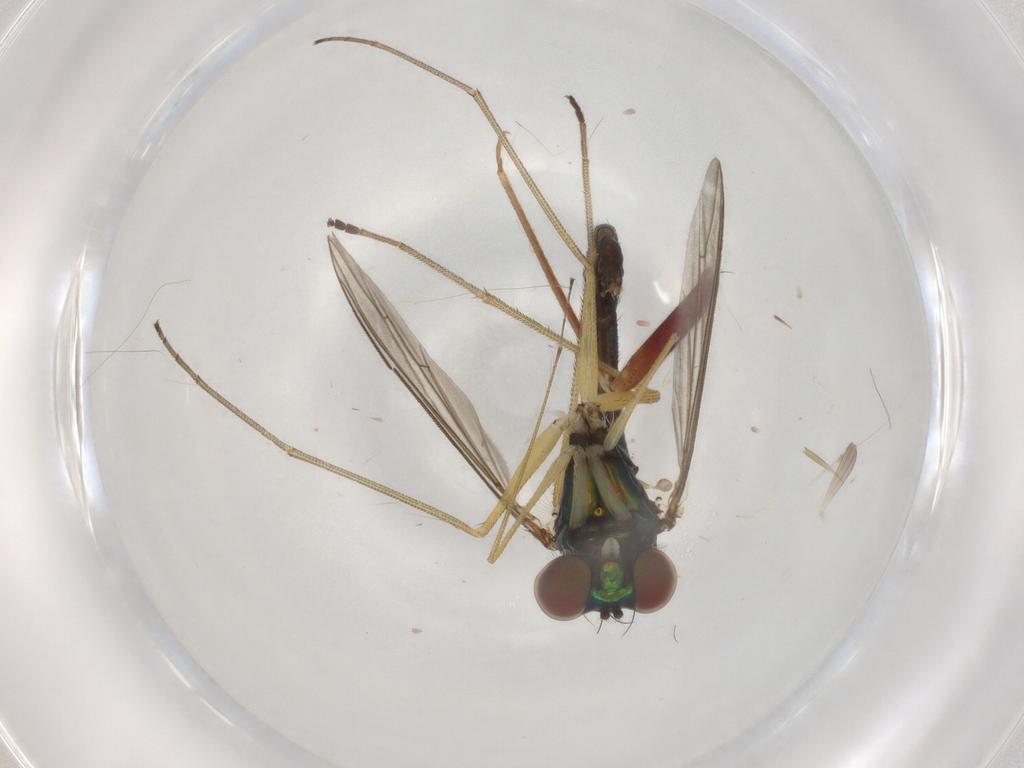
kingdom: Animalia
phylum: Arthropoda
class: Insecta
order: Diptera
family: Dolichopodidae
